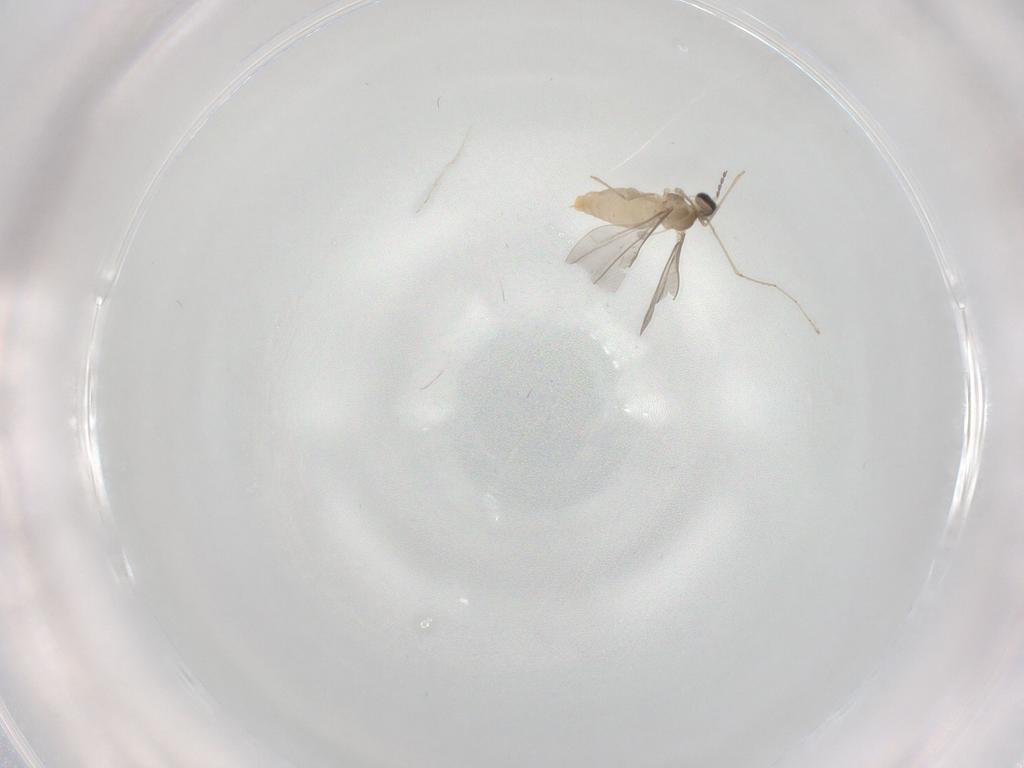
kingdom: Animalia
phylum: Arthropoda
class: Insecta
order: Diptera
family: Cecidomyiidae
